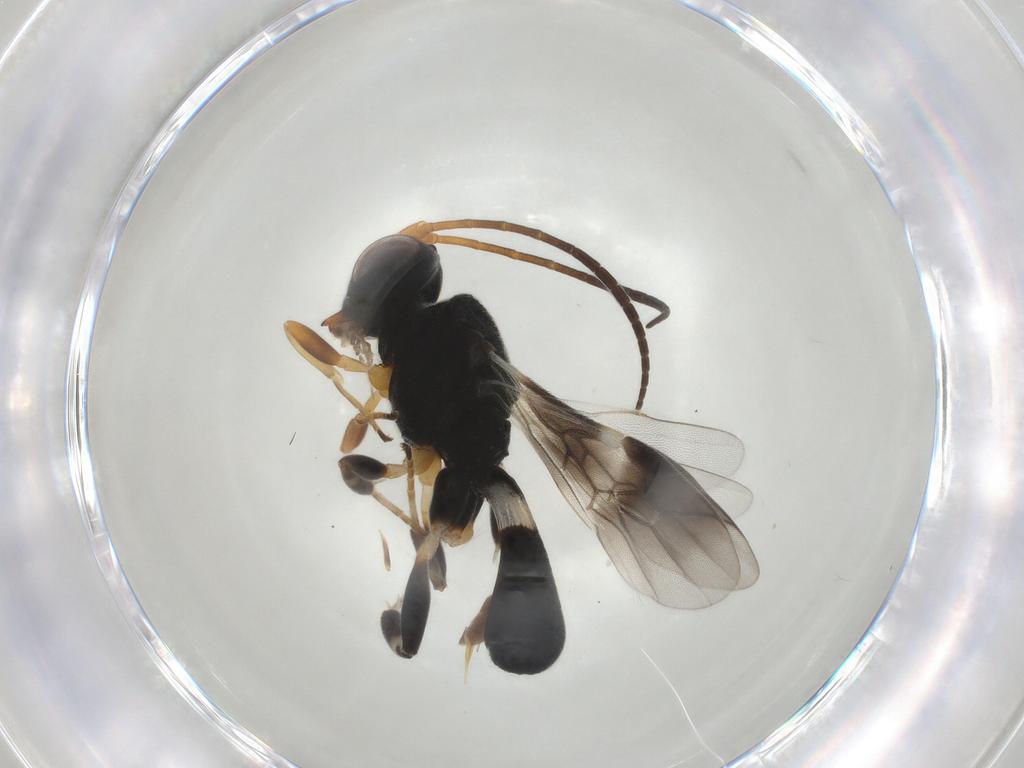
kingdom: Animalia
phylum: Arthropoda
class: Insecta
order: Hymenoptera
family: Braconidae
